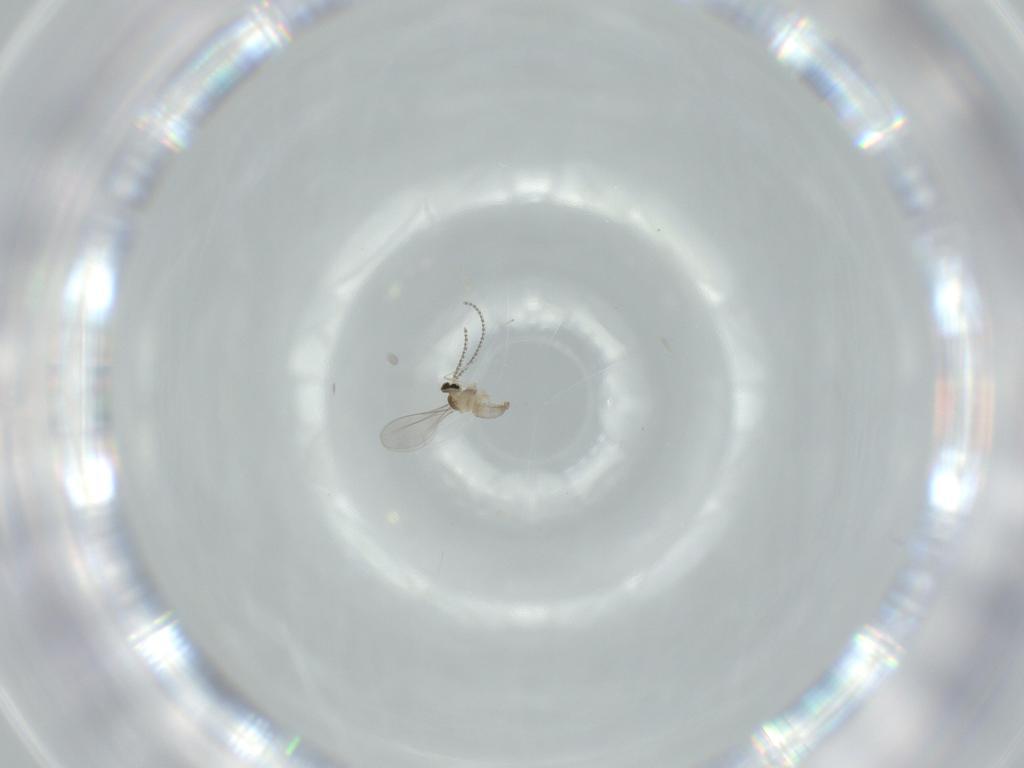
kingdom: Animalia
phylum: Arthropoda
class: Insecta
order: Diptera
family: Cecidomyiidae
